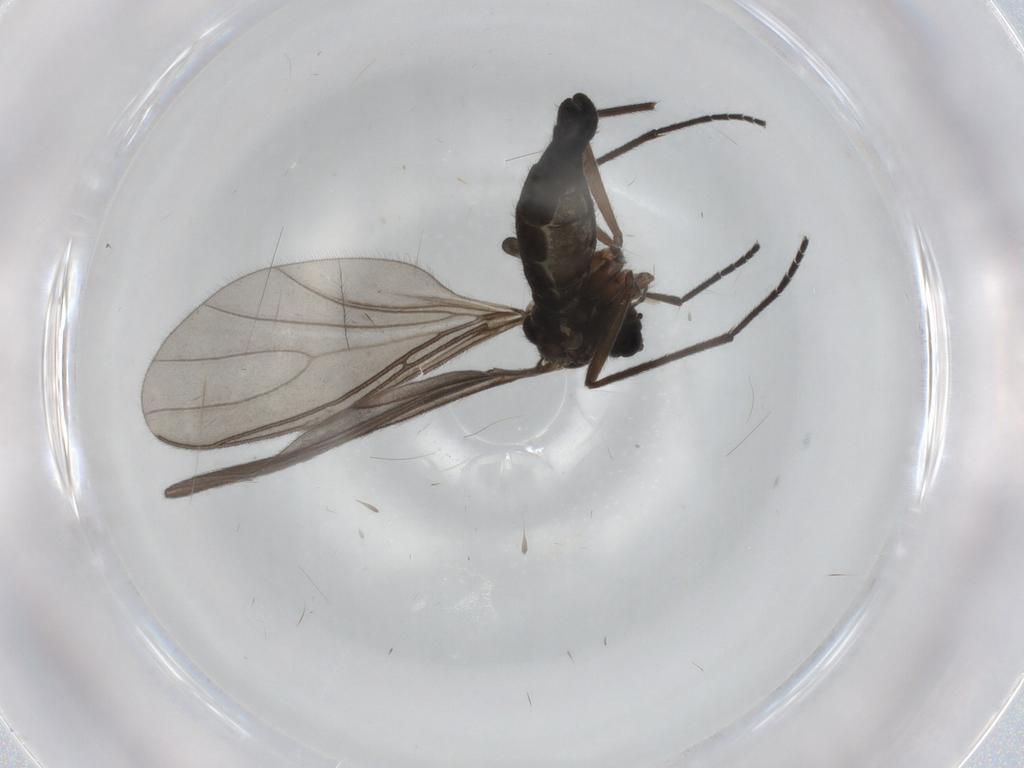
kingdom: Animalia
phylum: Arthropoda
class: Insecta
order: Diptera
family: Sciaridae
